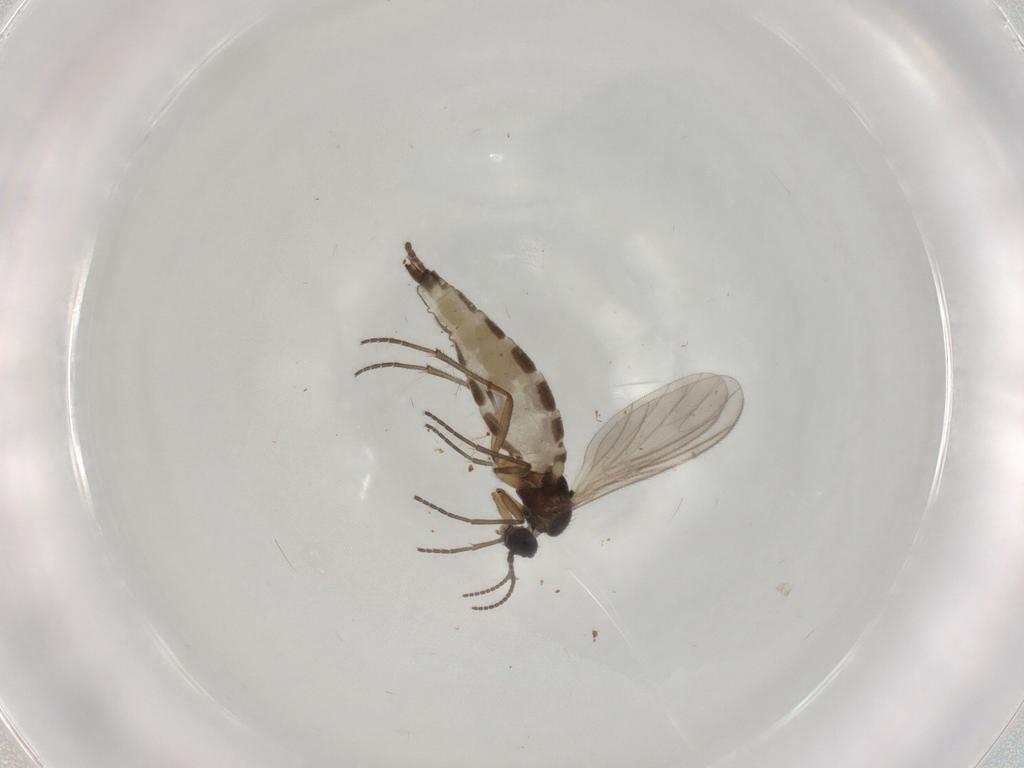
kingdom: Animalia
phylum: Arthropoda
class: Insecta
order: Diptera
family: Sciaridae
